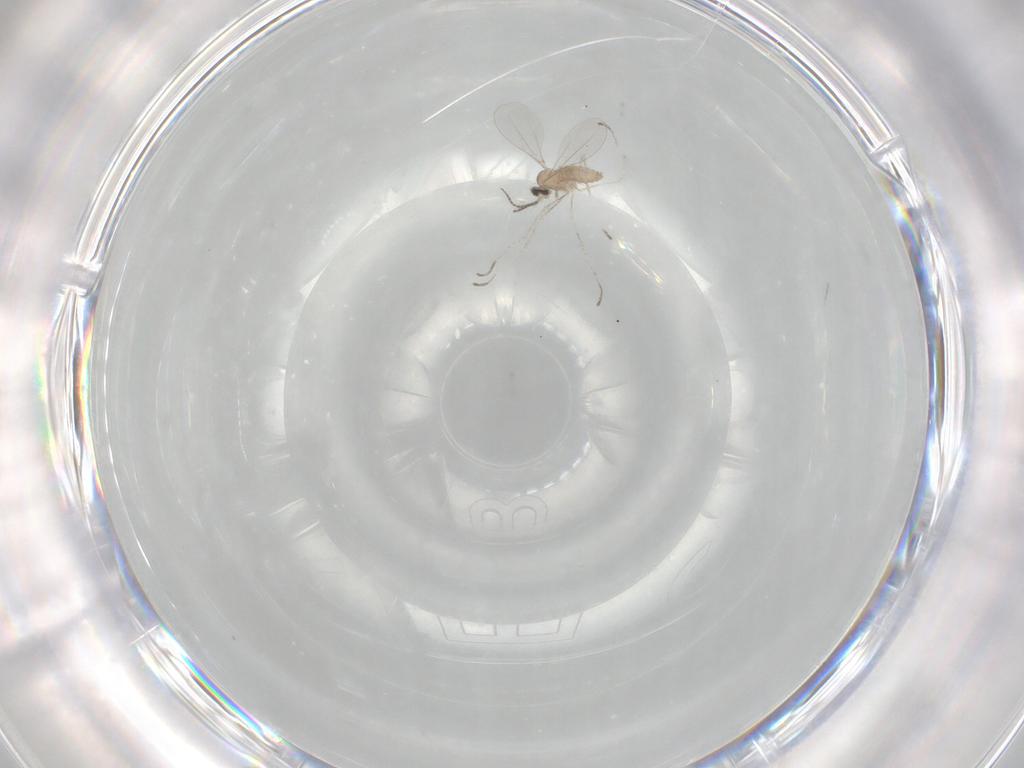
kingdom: Animalia
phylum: Arthropoda
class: Insecta
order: Diptera
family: Cecidomyiidae
